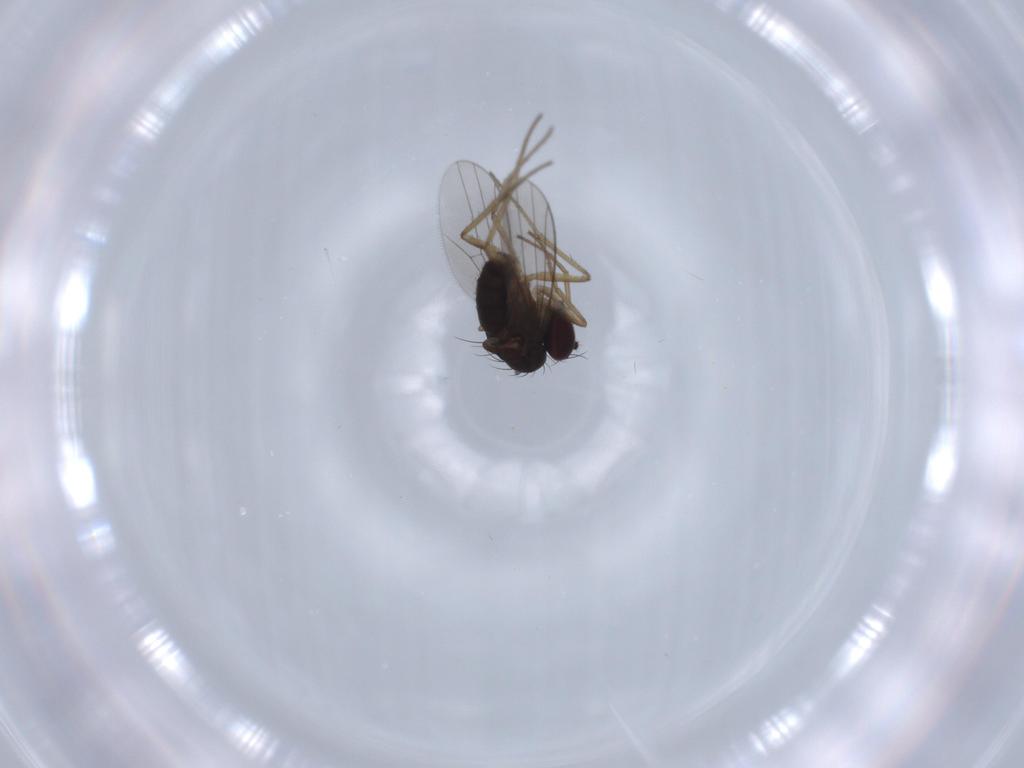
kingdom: Animalia
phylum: Arthropoda
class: Insecta
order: Diptera
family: Dolichopodidae
